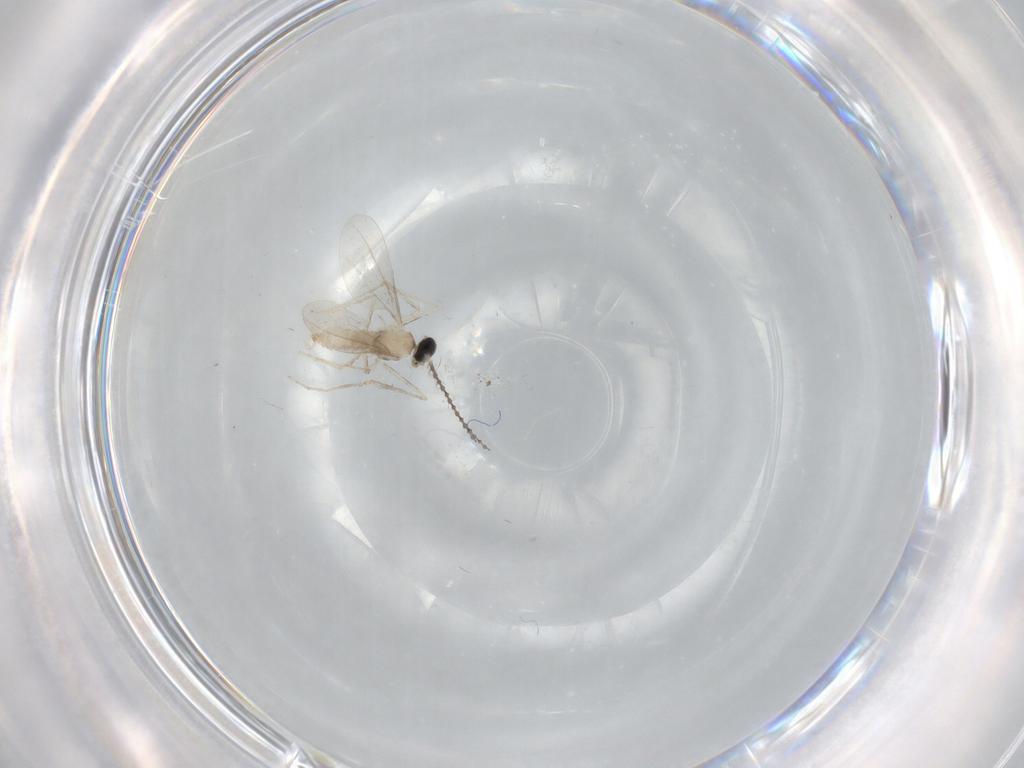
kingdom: Animalia
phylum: Arthropoda
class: Insecta
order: Diptera
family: Cecidomyiidae
